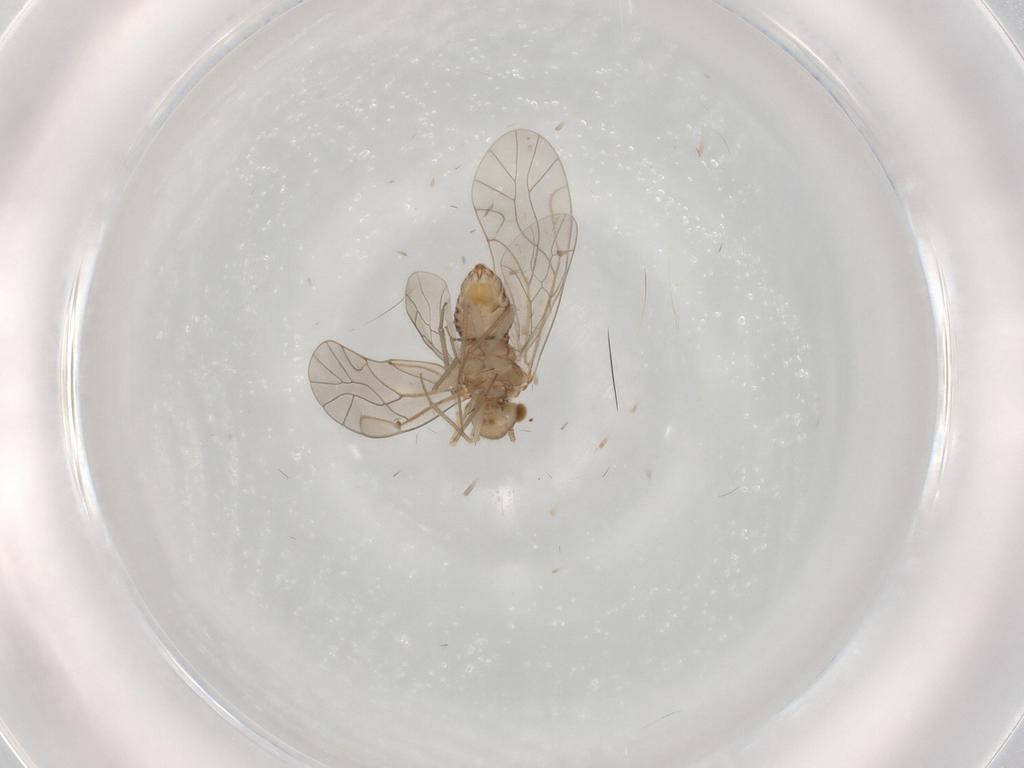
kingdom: Animalia
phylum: Arthropoda
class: Insecta
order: Psocodea
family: Lachesillidae
